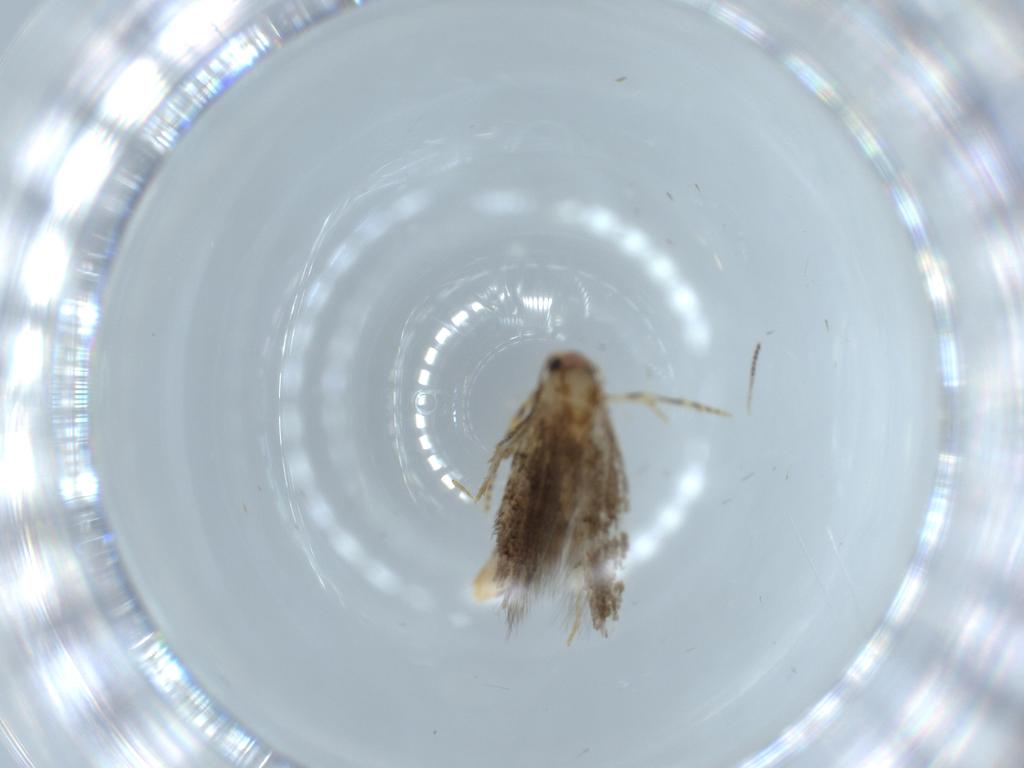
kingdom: Animalia
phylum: Arthropoda
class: Insecta
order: Lepidoptera
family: Tineidae
